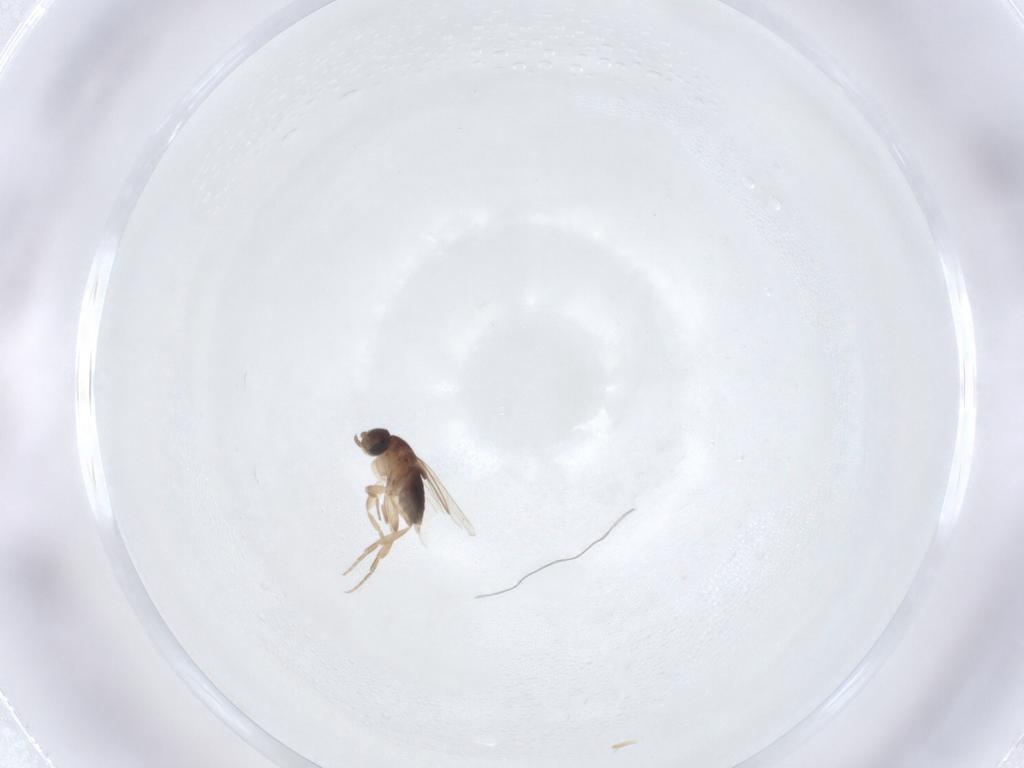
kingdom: Animalia
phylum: Arthropoda
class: Insecta
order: Diptera
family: Phoridae
